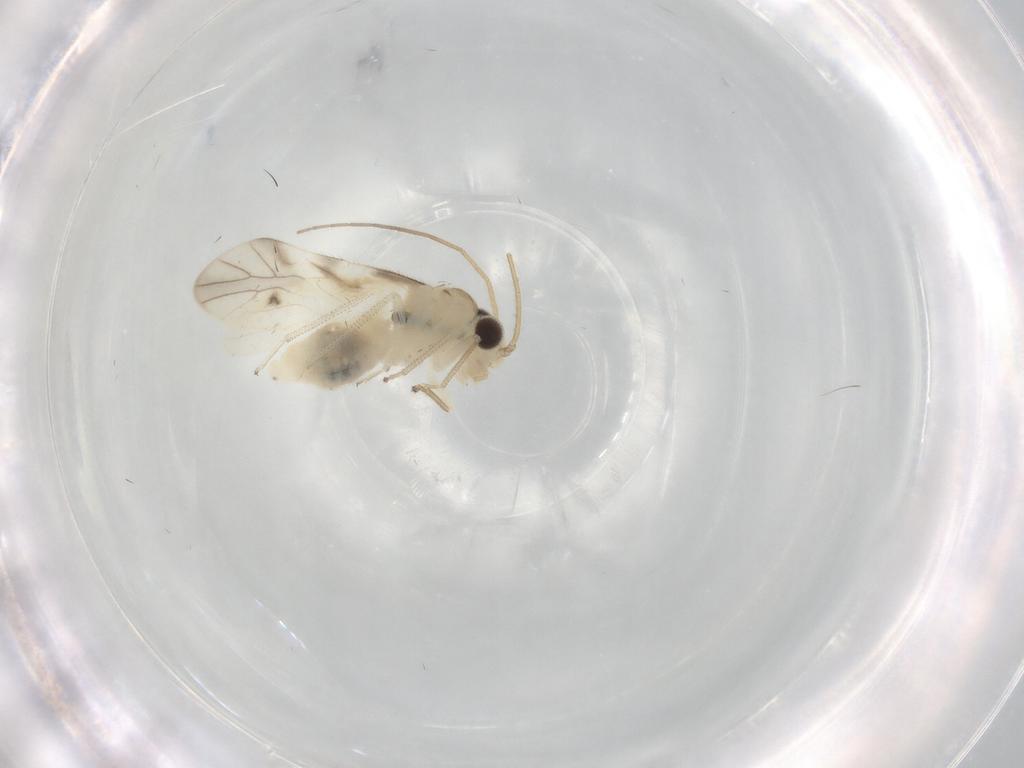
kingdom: Animalia
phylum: Arthropoda
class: Insecta
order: Psocodea
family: Caeciliusidae
